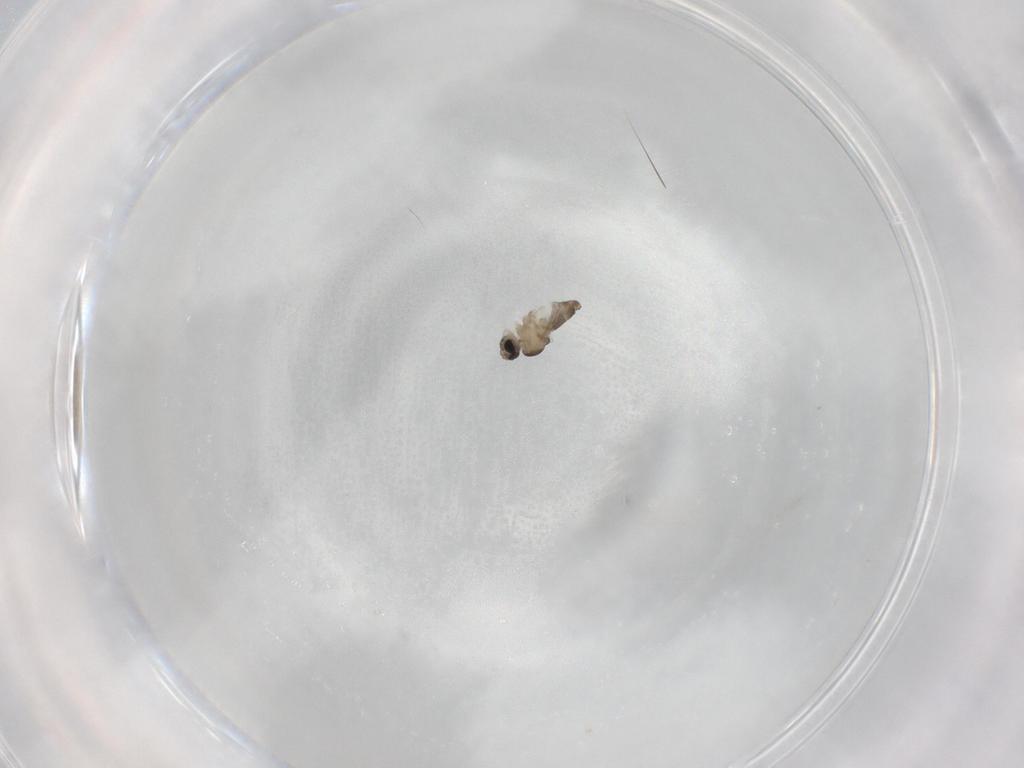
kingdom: Animalia
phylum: Arthropoda
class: Insecta
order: Diptera
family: Cecidomyiidae
